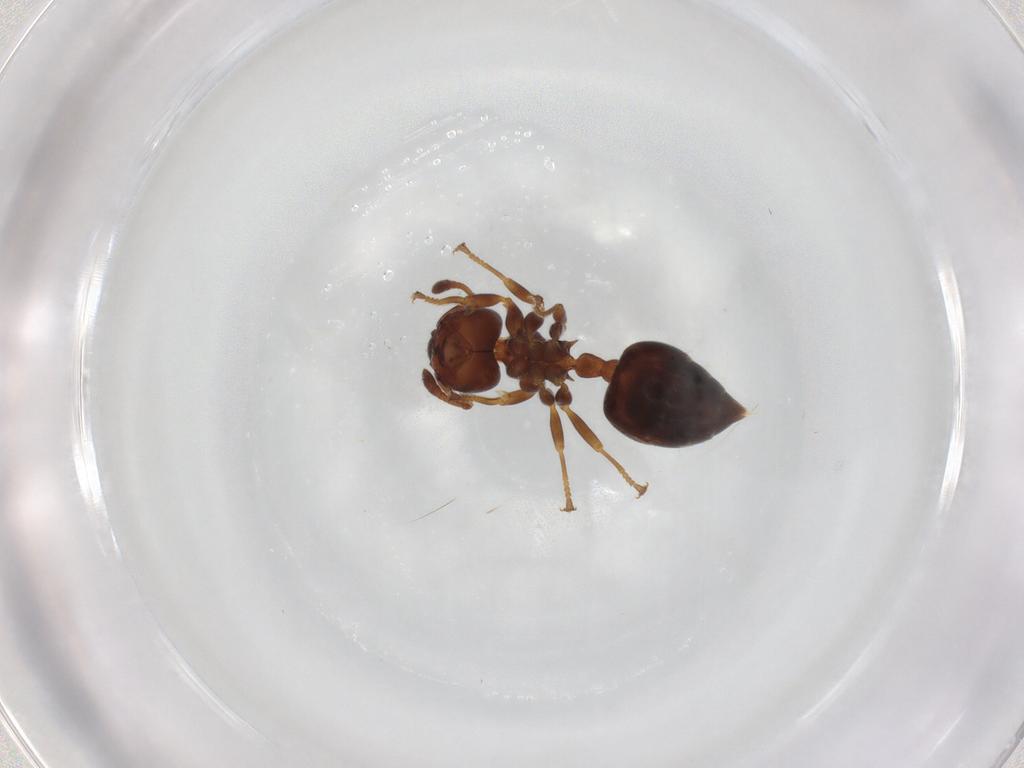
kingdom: Animalia
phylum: Arthropoda
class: Insecta
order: Hymenoptera
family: Formicidae
